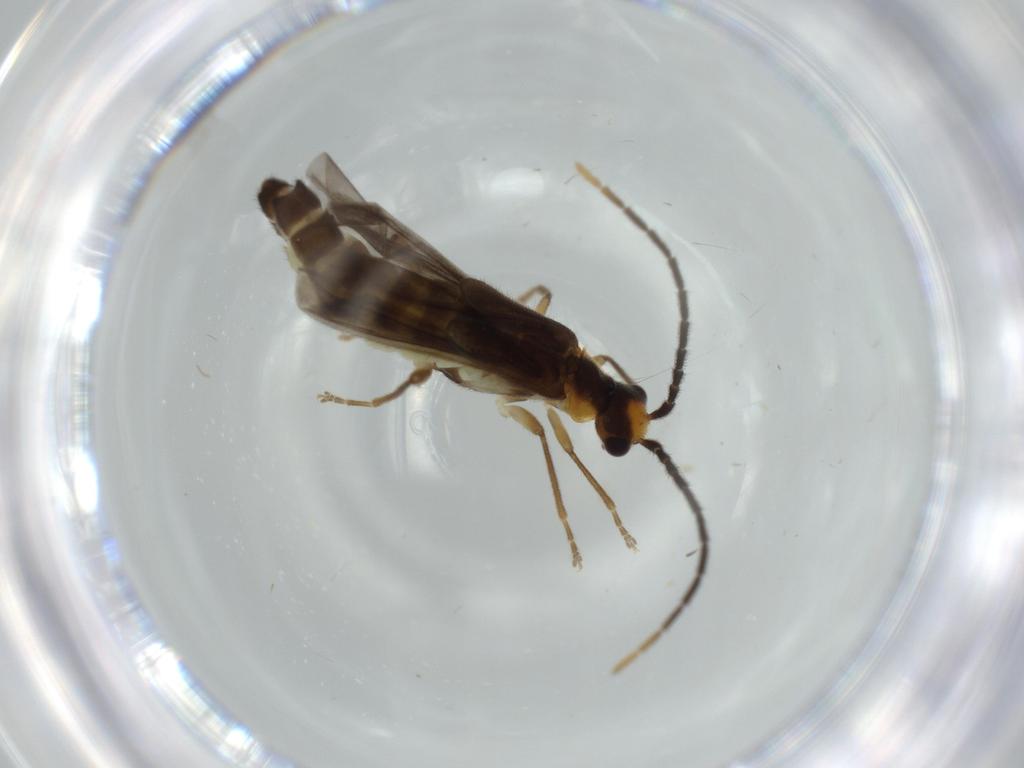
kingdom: Animalia
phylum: Arthropoda
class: Insecta
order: Coleoptera
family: Cantharidae
